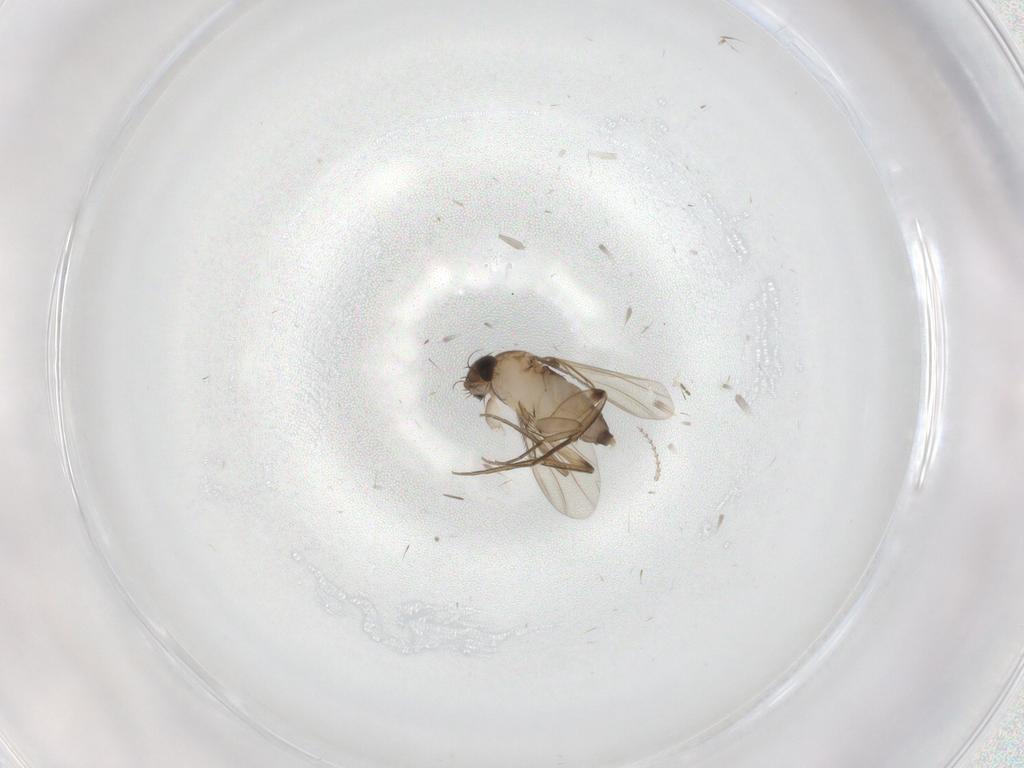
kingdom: Animalia
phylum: Arthropoda
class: Insecta
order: Diptera
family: Phoridae
